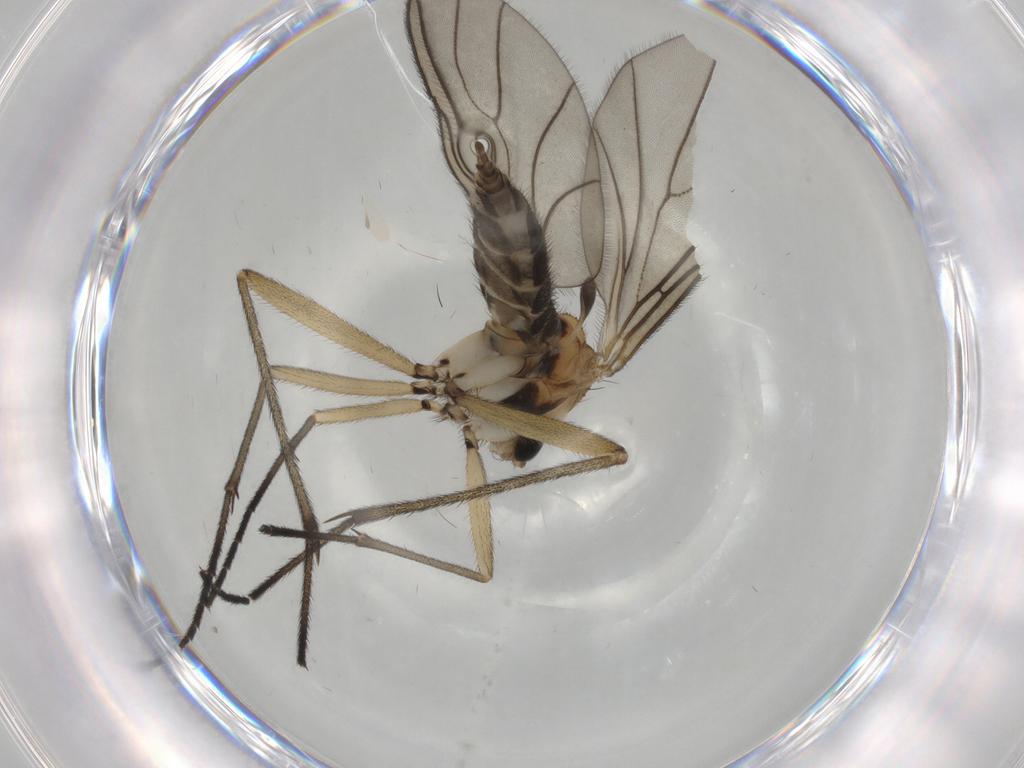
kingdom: Animalia
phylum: Arthropoda
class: Insecta
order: Diptera
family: Sciaridae
